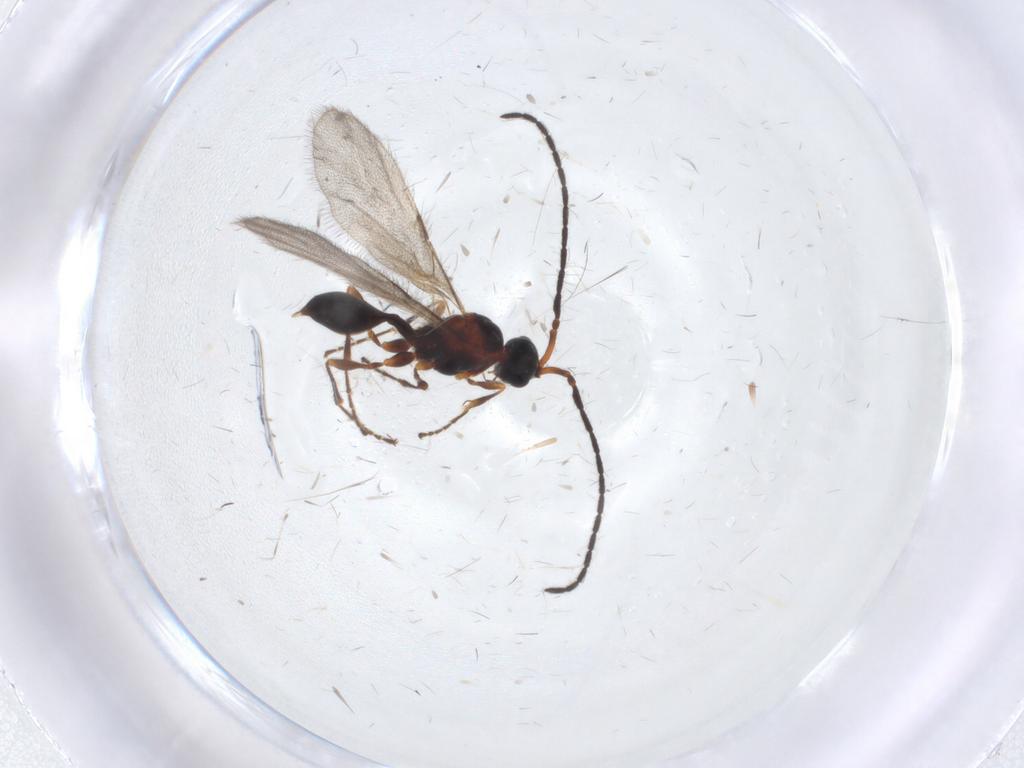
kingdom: Animalia
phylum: Arthropoda
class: Insecta
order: Hymenoptera
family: Diapriidae
